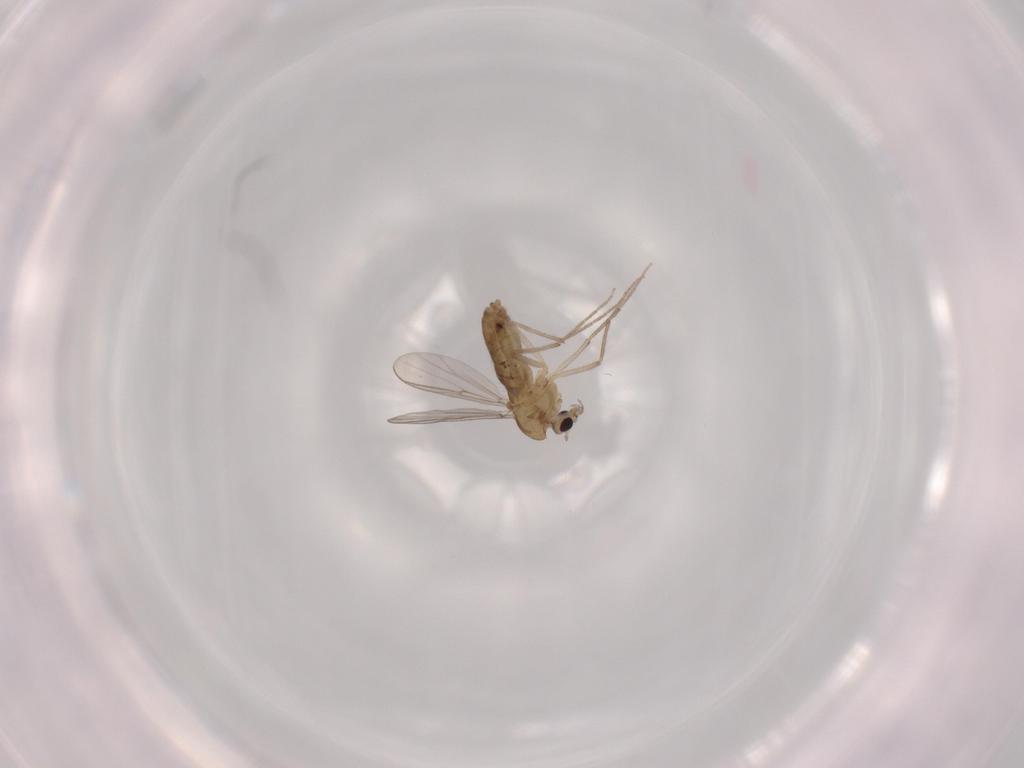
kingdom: Animalia
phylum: Arthropoda
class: Insecta
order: Diptera
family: Chironomidae
